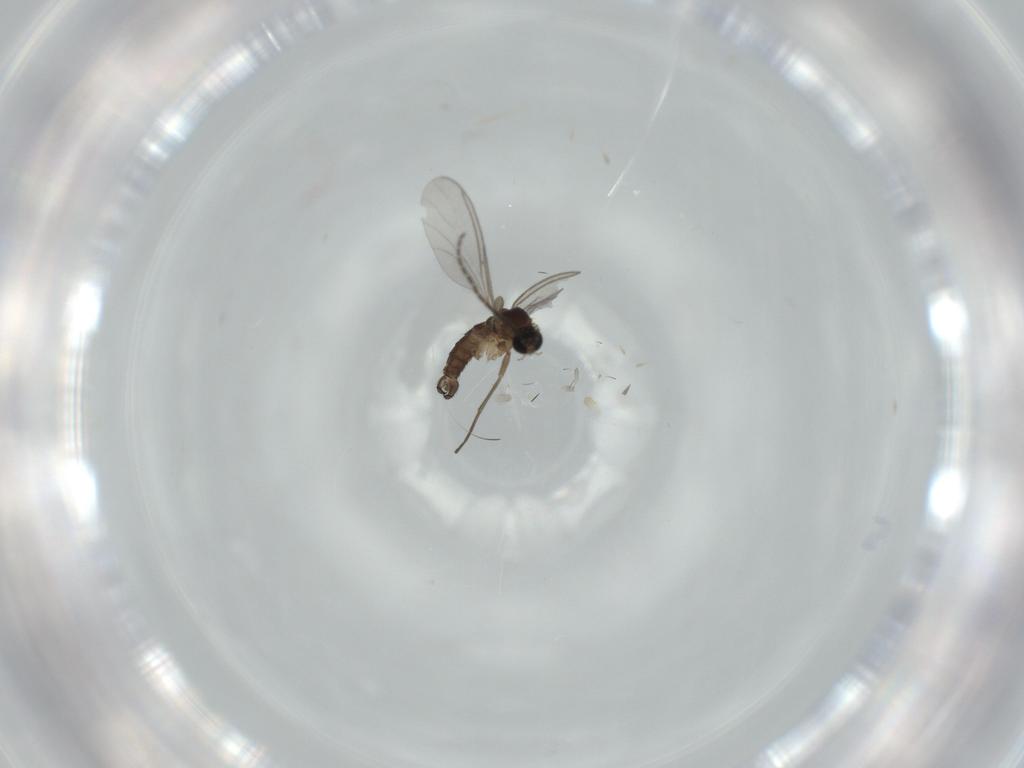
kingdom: Animalia
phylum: Arthropoda
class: Insecta
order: Diptera
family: Sciaridae
